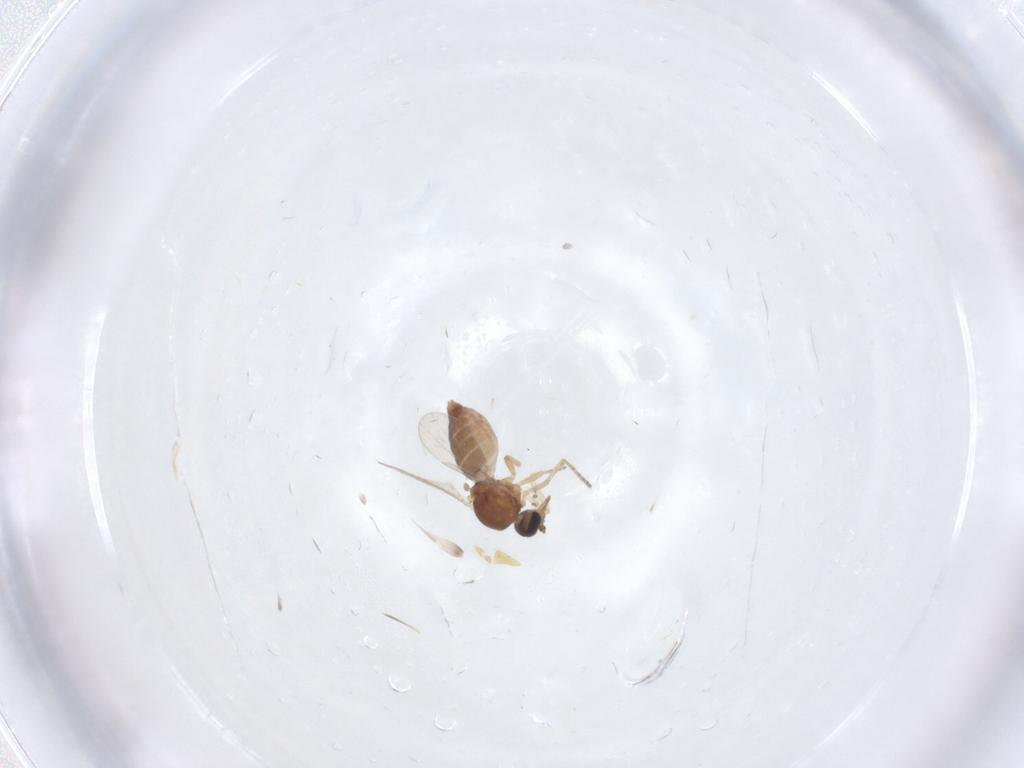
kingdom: Animalia
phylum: Arthropoda
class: Insecta
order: Diptera
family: Ceratopogonidae
